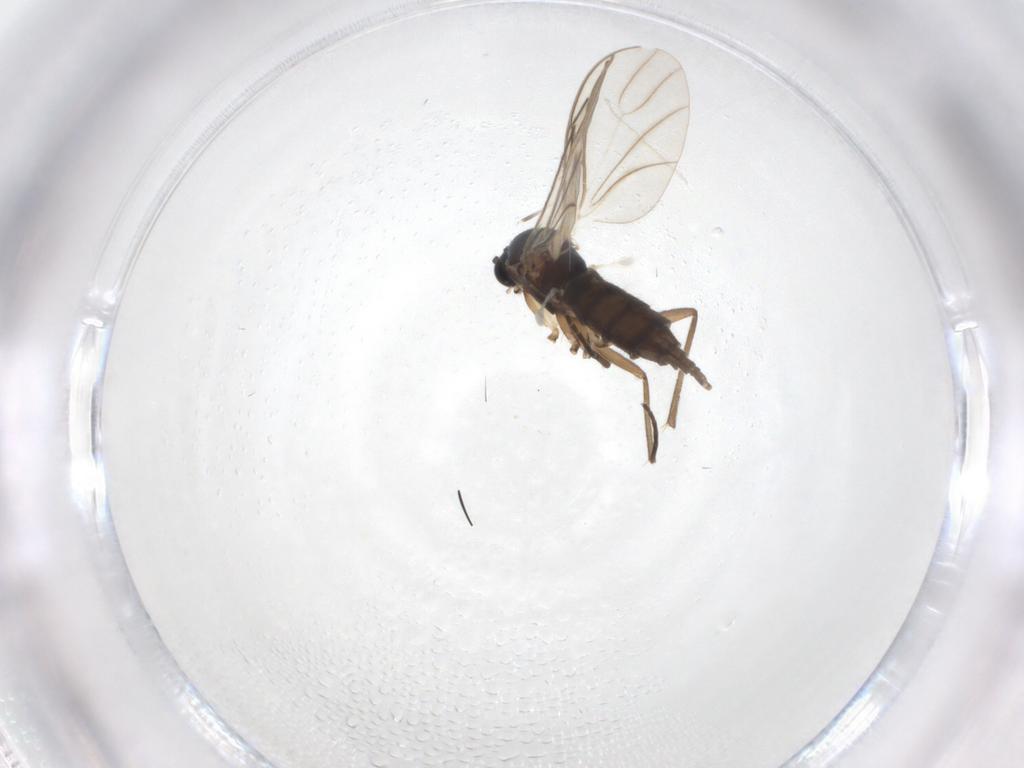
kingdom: Animalia
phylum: Arthropoda
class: Insecta
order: Diptera
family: Chironomidae
